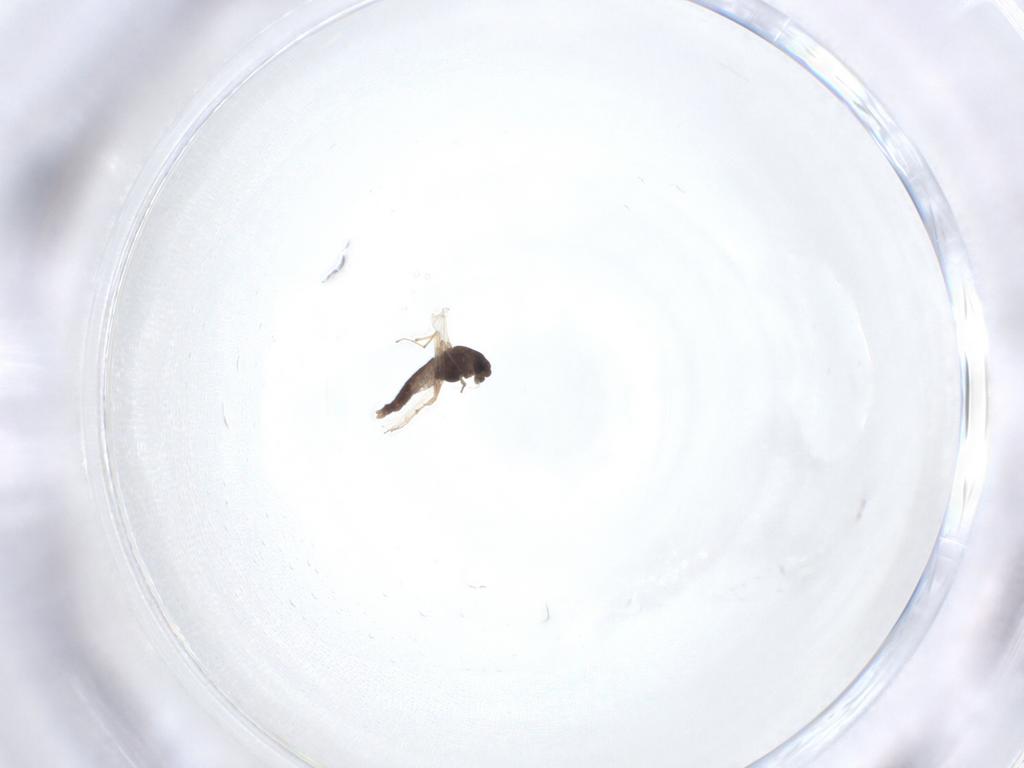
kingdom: Animalia
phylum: Arthropoda
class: Insecta
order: Diptera
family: Chironomidae
